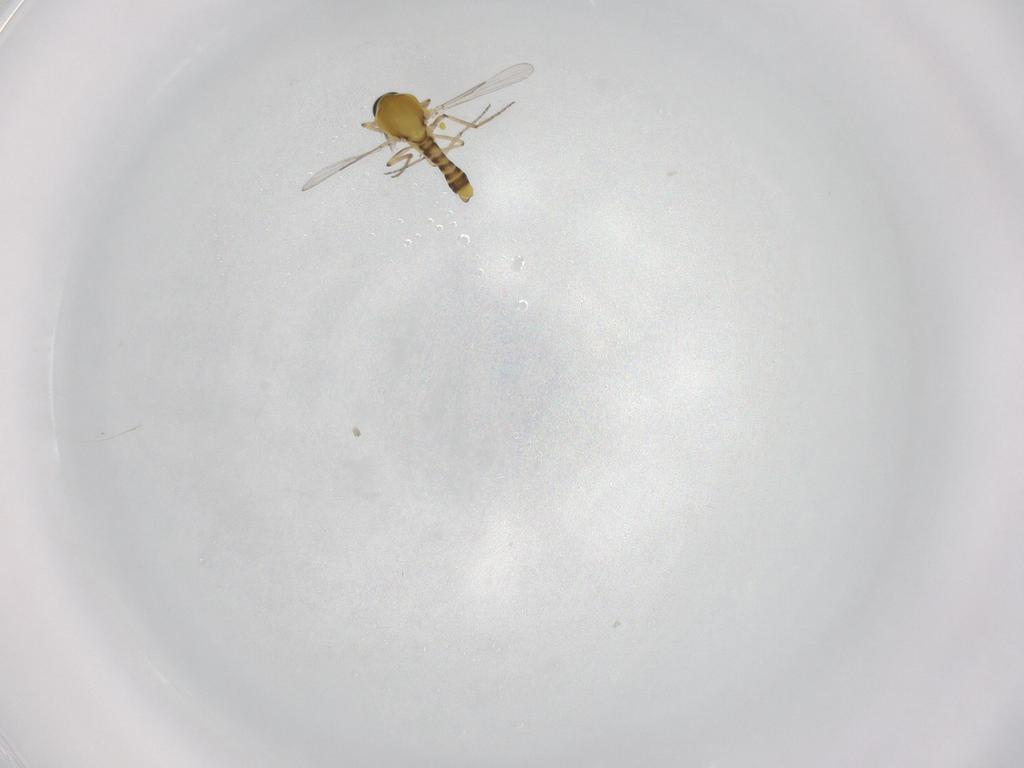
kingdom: Animalia
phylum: Arthropoda
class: Insecta
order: Diptera
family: Ceratopogonidae
